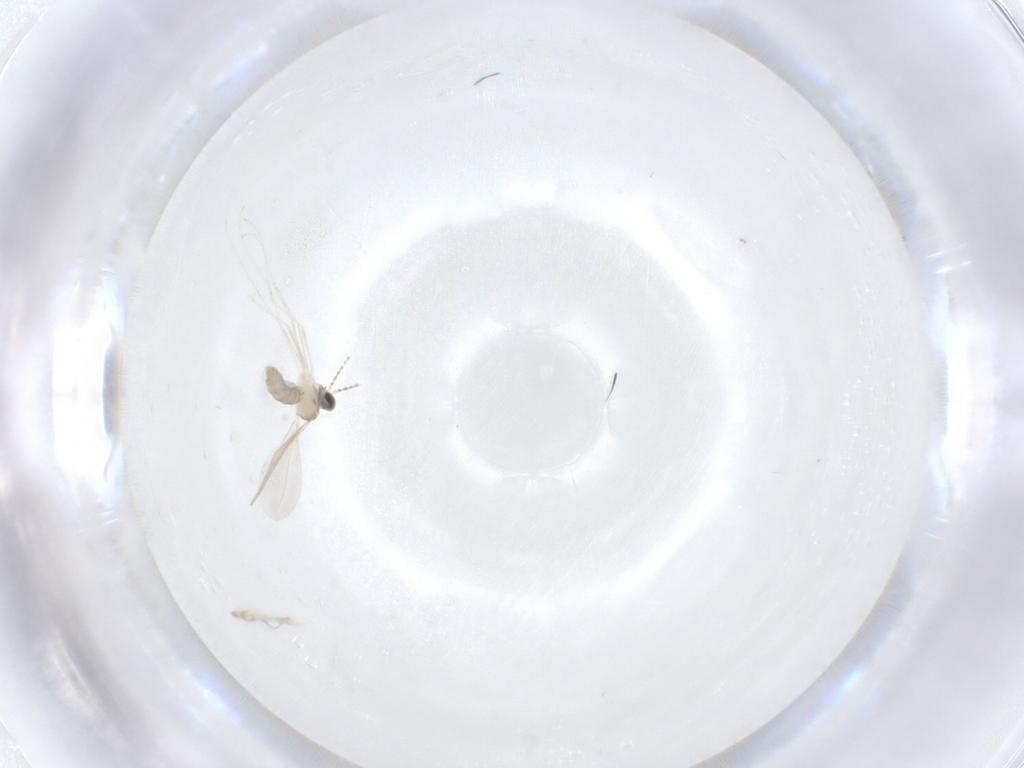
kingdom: Animalia
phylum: Arthropoda
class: Insecta
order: Diptera
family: Cecidomyiidae
